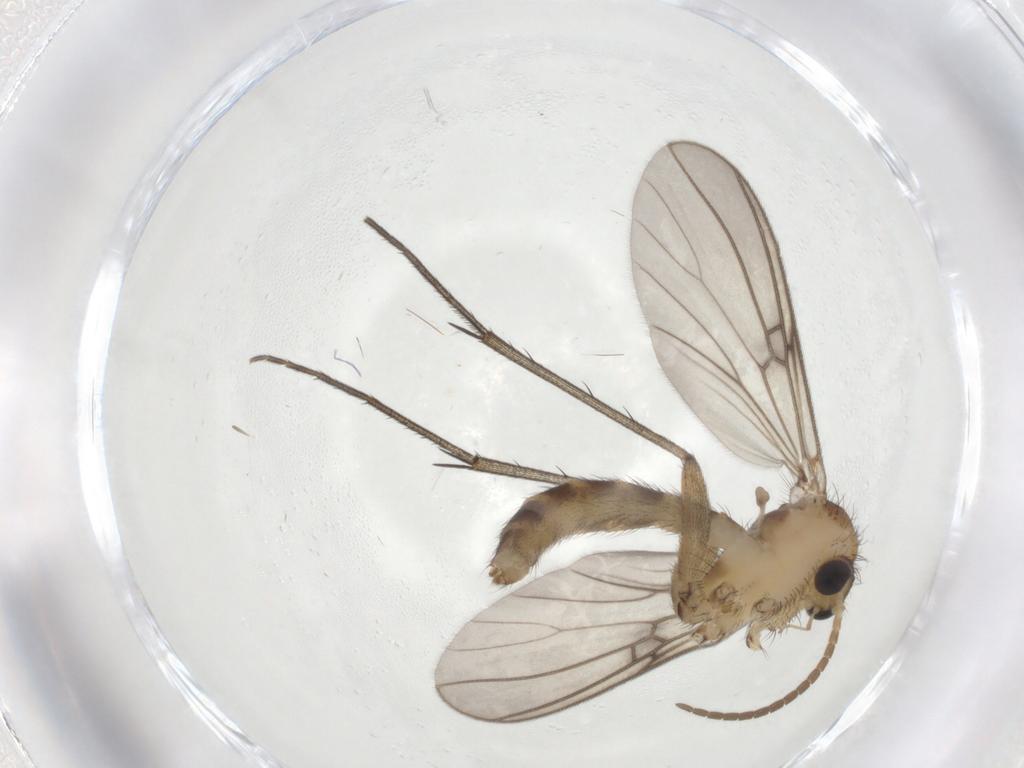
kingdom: Animalia
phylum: Arthropoda
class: Insecta
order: Diptera
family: Mycetophilidae
